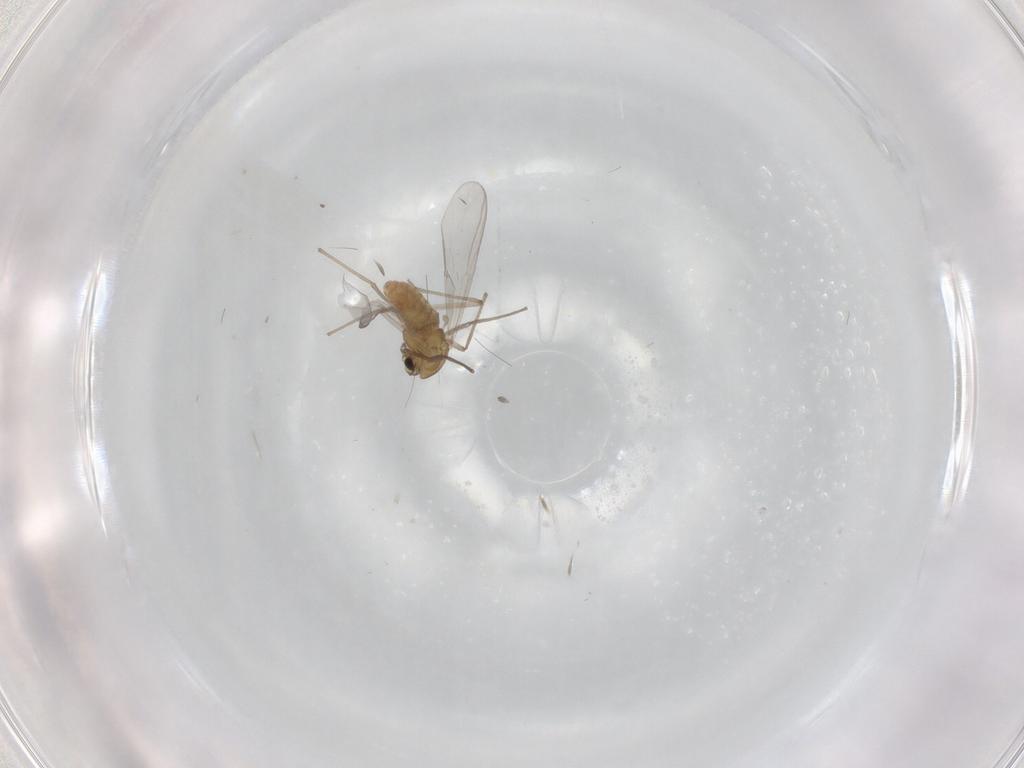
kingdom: Animalia
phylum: Arthropoda
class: Insecta
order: Diptera
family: Chironomidae
